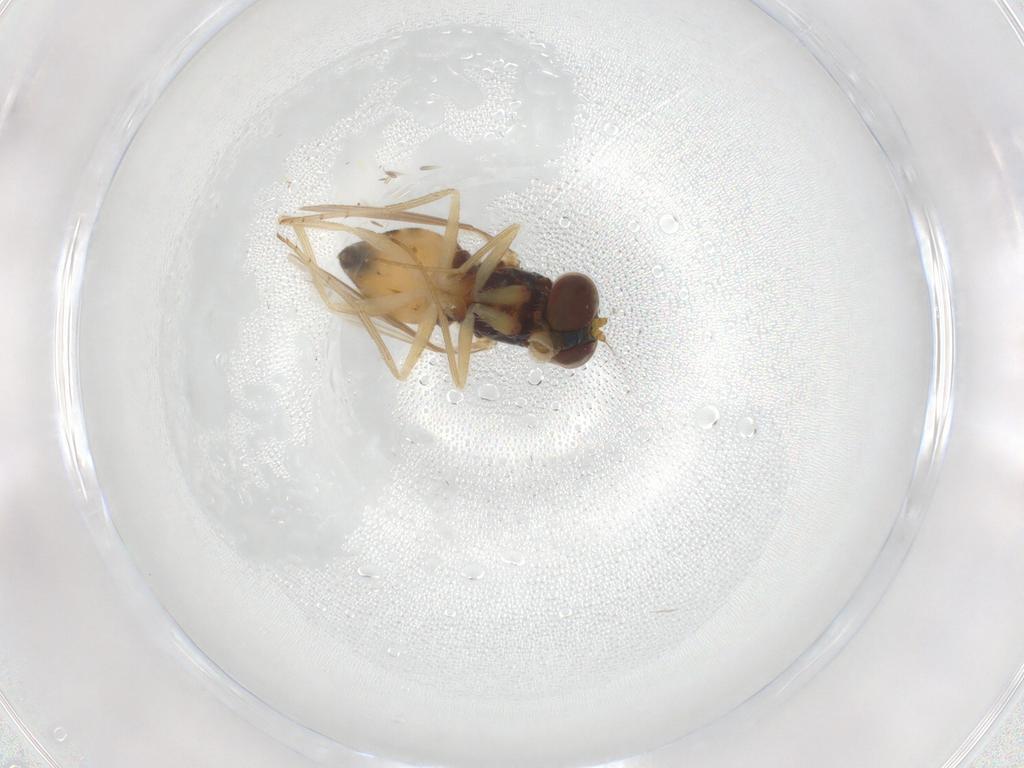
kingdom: Animalia
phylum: Arthropoda
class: Insecta
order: Diptera
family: Dolichopodidae
